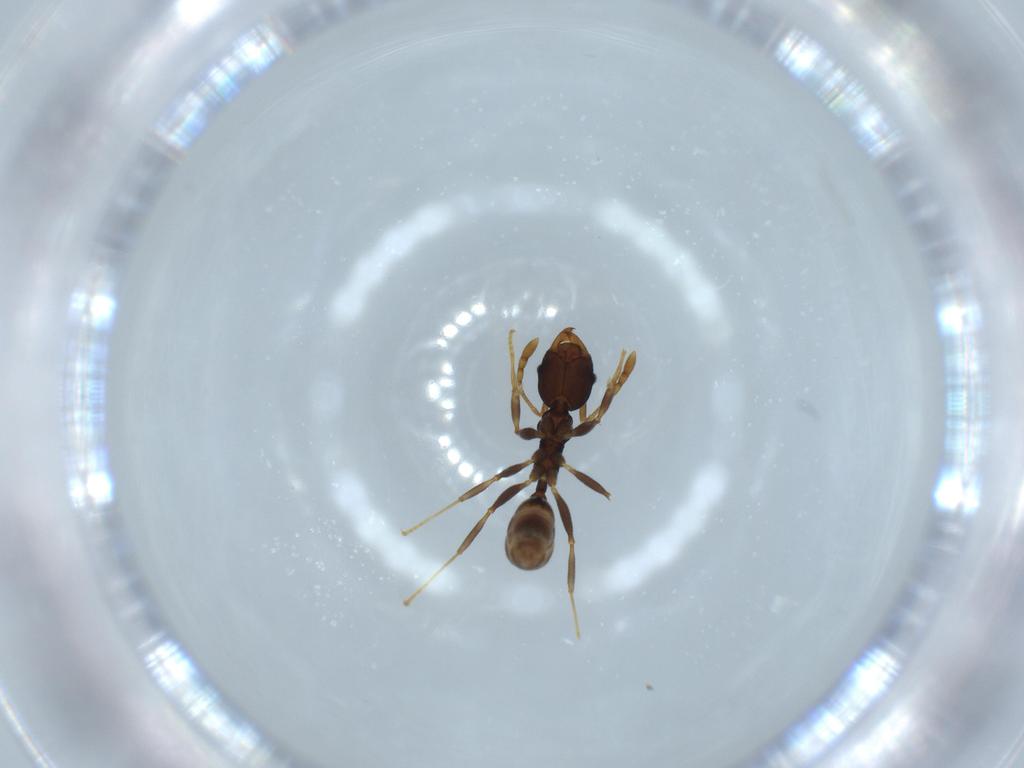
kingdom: Animalia
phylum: Arthropoda
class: Insecta
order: Hymenoptera
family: Formicidae
